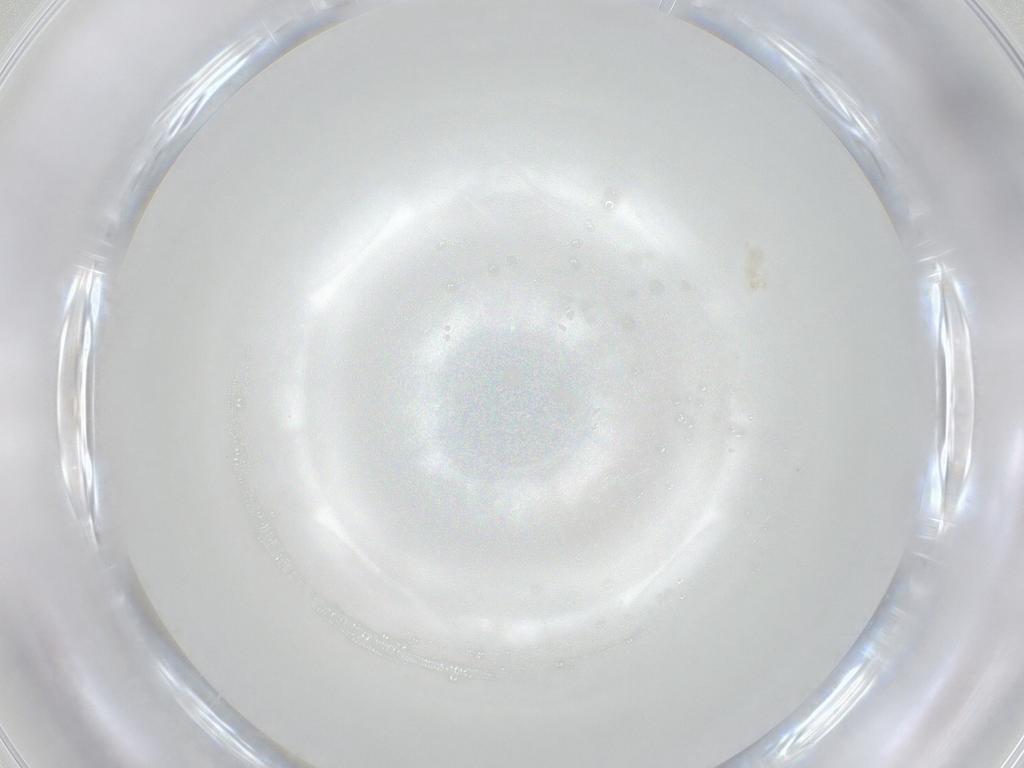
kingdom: Animalia
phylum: Arthropoda
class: Arachnida
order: Trombidiformes
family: Erythraeidae
